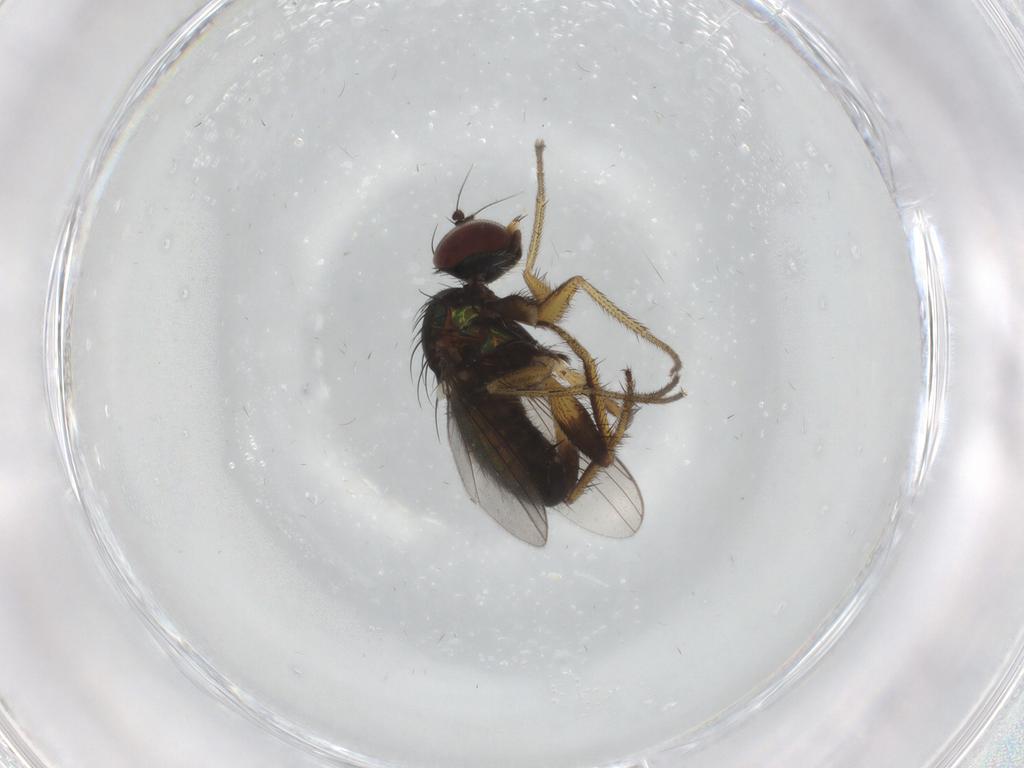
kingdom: Animalia
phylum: Arthropoda
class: Insecta
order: Diptera
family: Dolichopodidae
